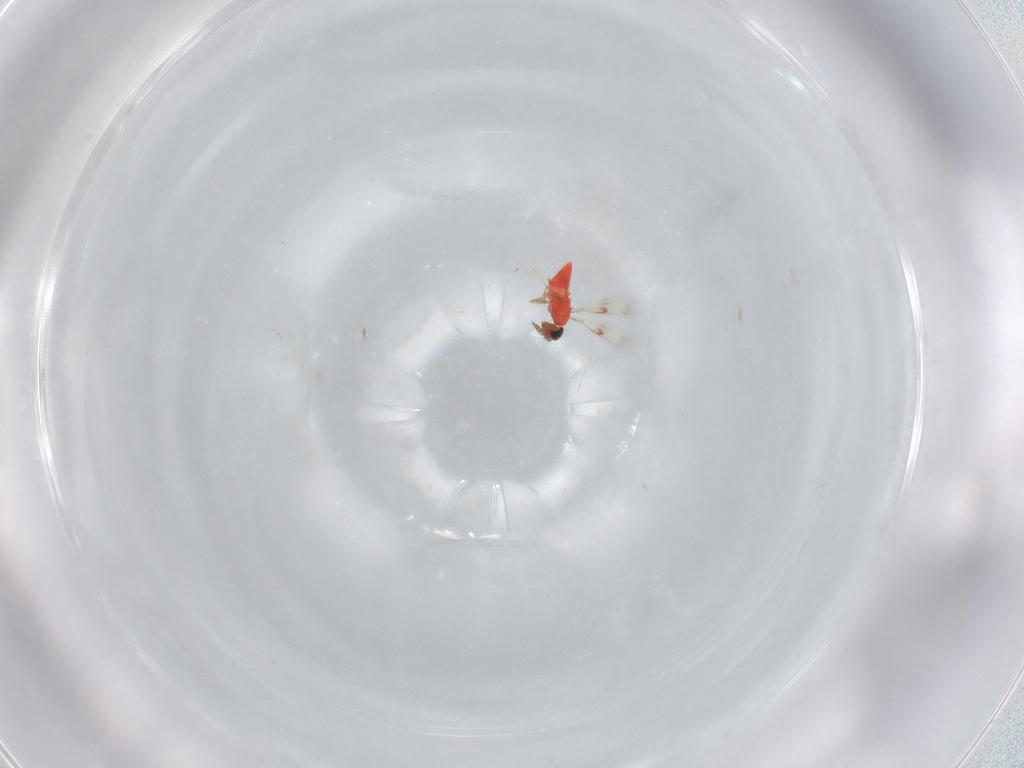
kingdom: Animalia
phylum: Arthropoda
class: Insecta
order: Hymenoptera
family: Trichogrammatidae
